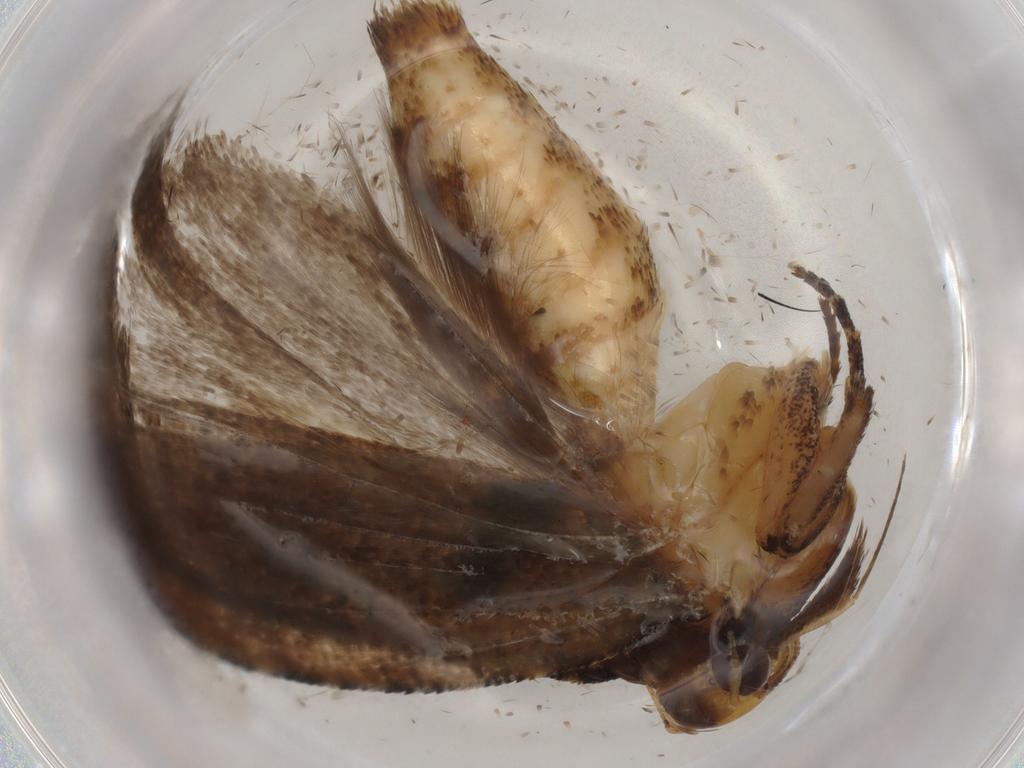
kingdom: Animalia
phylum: Arthropoda
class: Insecta
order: Lepidoptera
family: Gelechiidae
